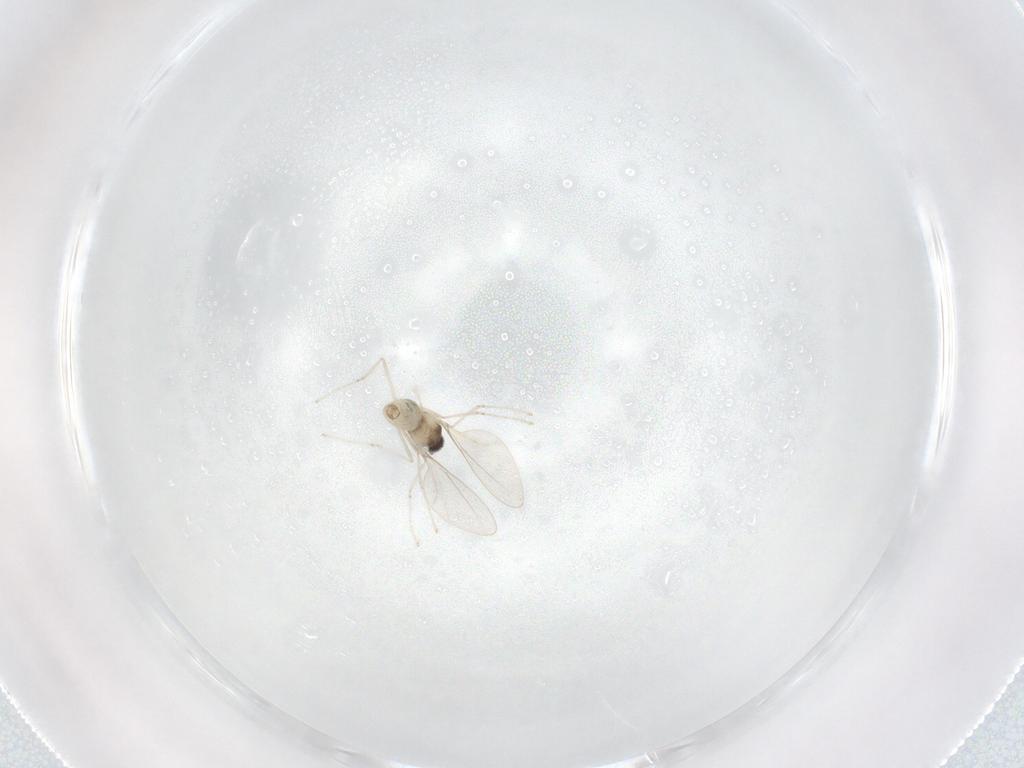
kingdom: Animalia
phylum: Arthropoda
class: Insecta
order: Diptera
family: Cecidomyiidae
